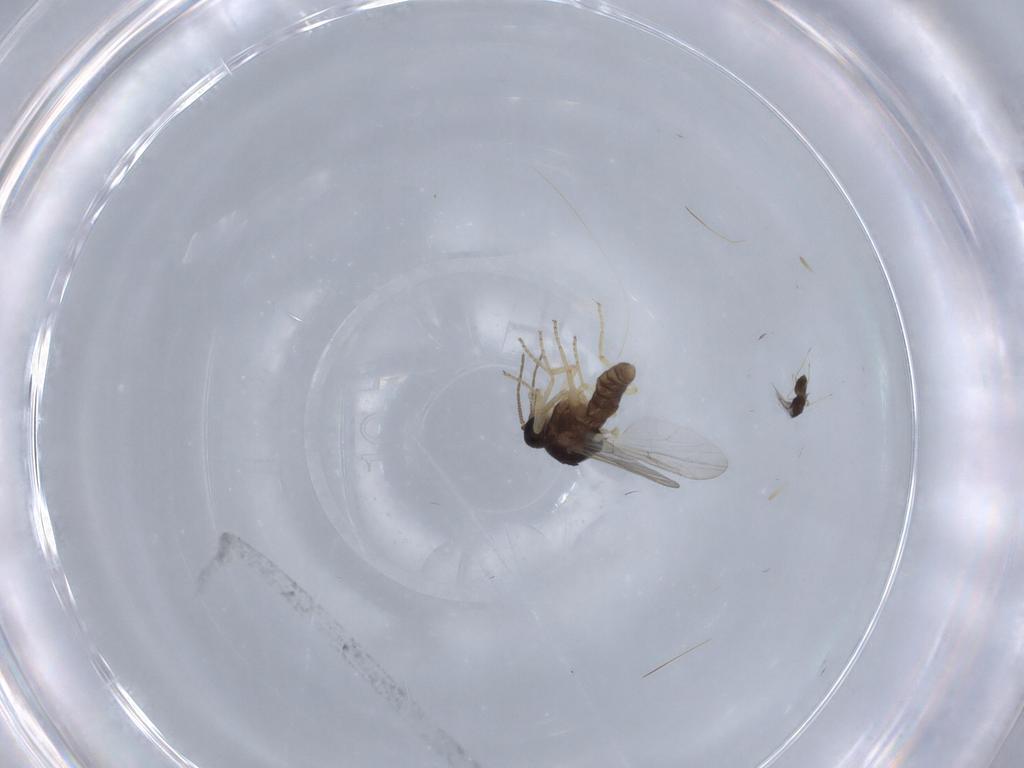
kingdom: Animalia
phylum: Arthropoda
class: Insecta
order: Diptera
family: Ceratopogonidae
